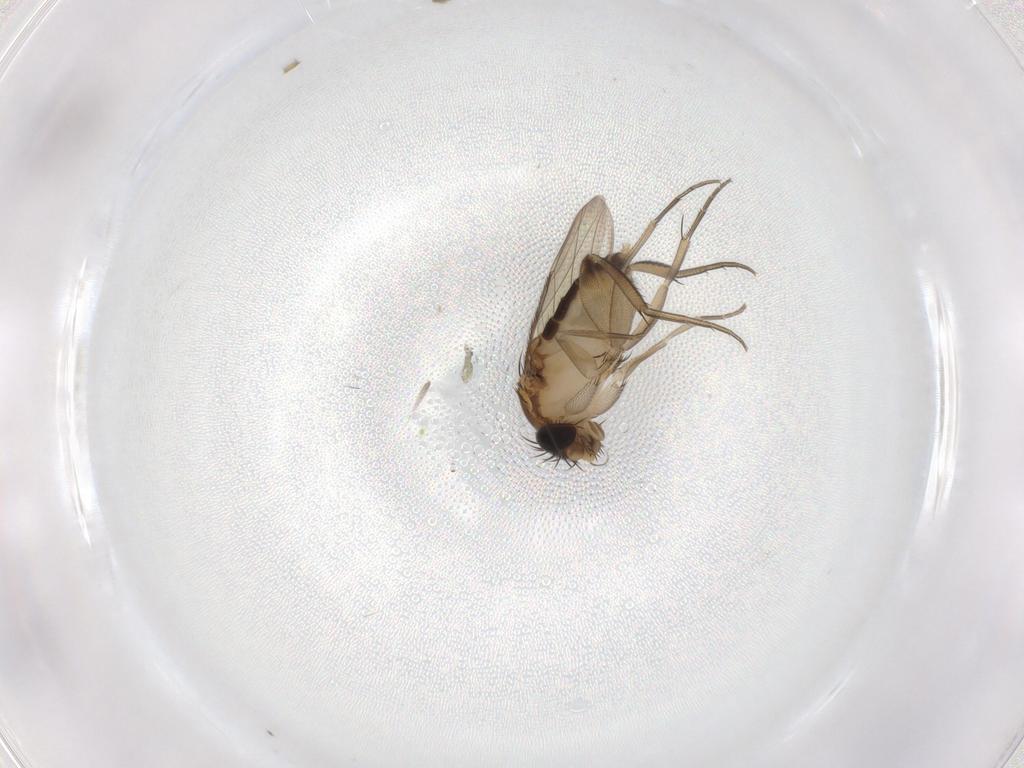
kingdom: Animalia
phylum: Arthropoda
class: Insecta
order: Diptera
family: Phoridae
